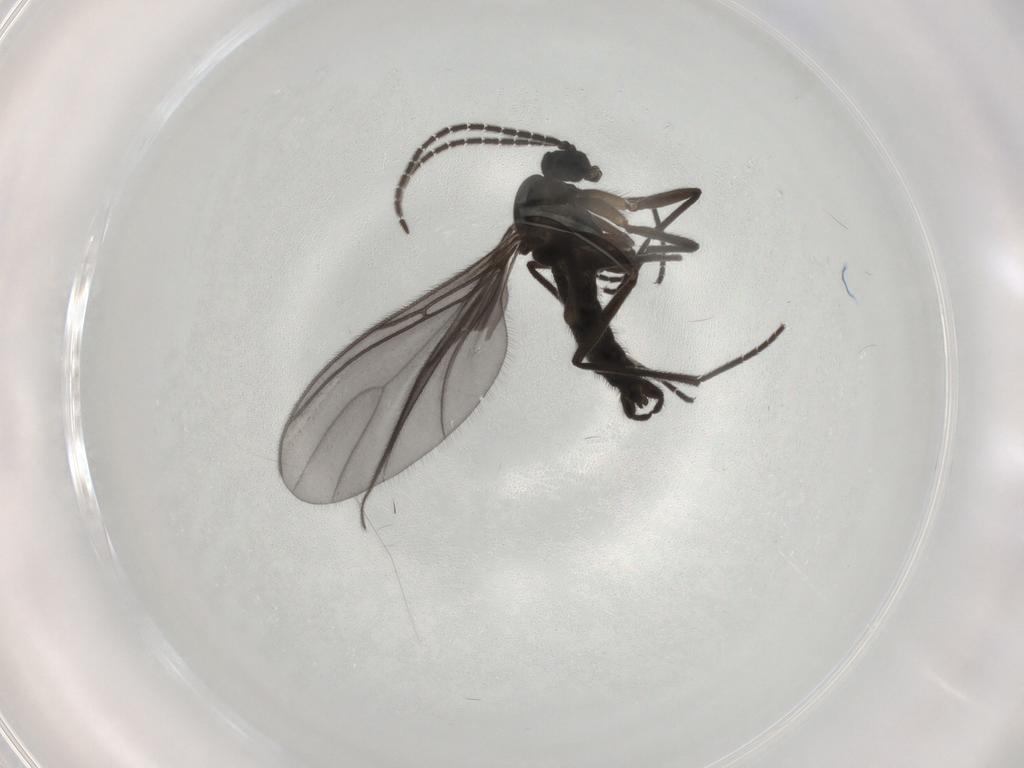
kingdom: Animalia
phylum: Arthropoda
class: Insecta
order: Diptera
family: Sciaridae
